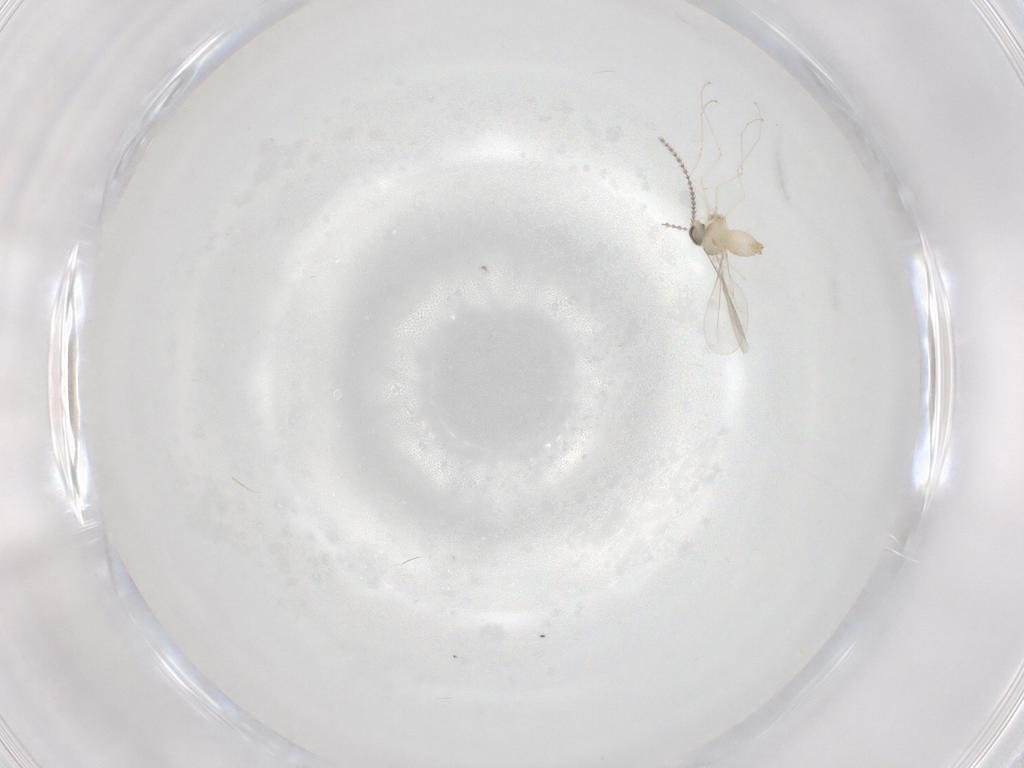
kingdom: Animalia
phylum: Arthropoda
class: Insecta
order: Diptera
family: Cecidomyiidae
